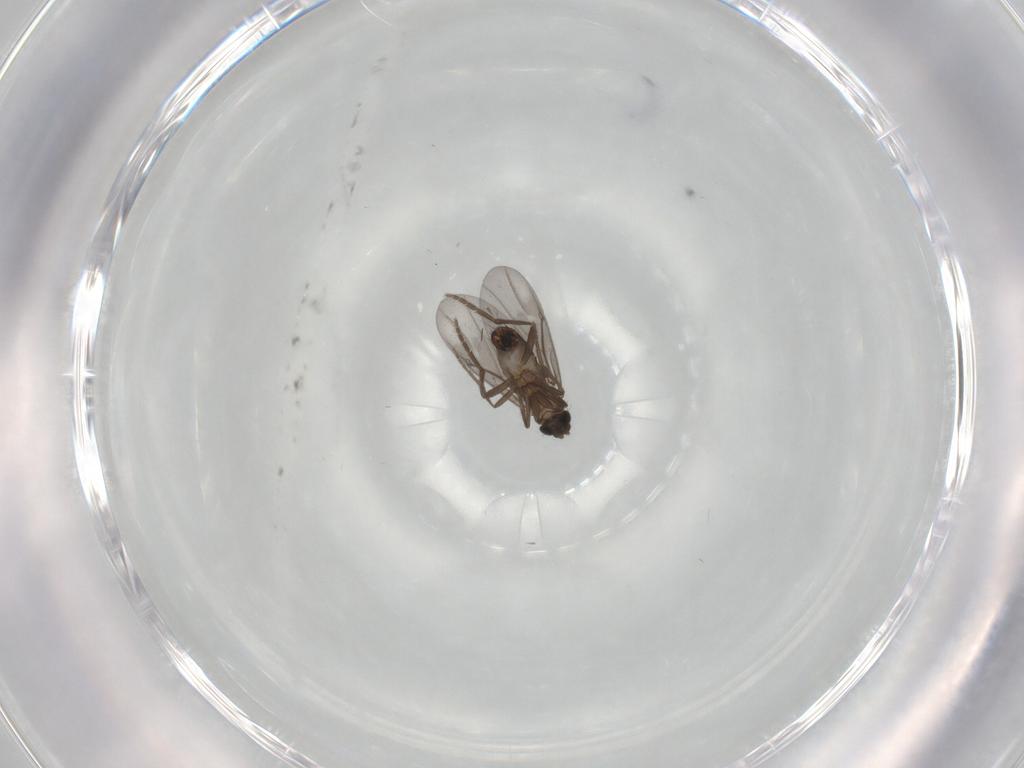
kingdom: Animalia
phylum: Arthropoda
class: Insecta
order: Diptera
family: Phoridae
